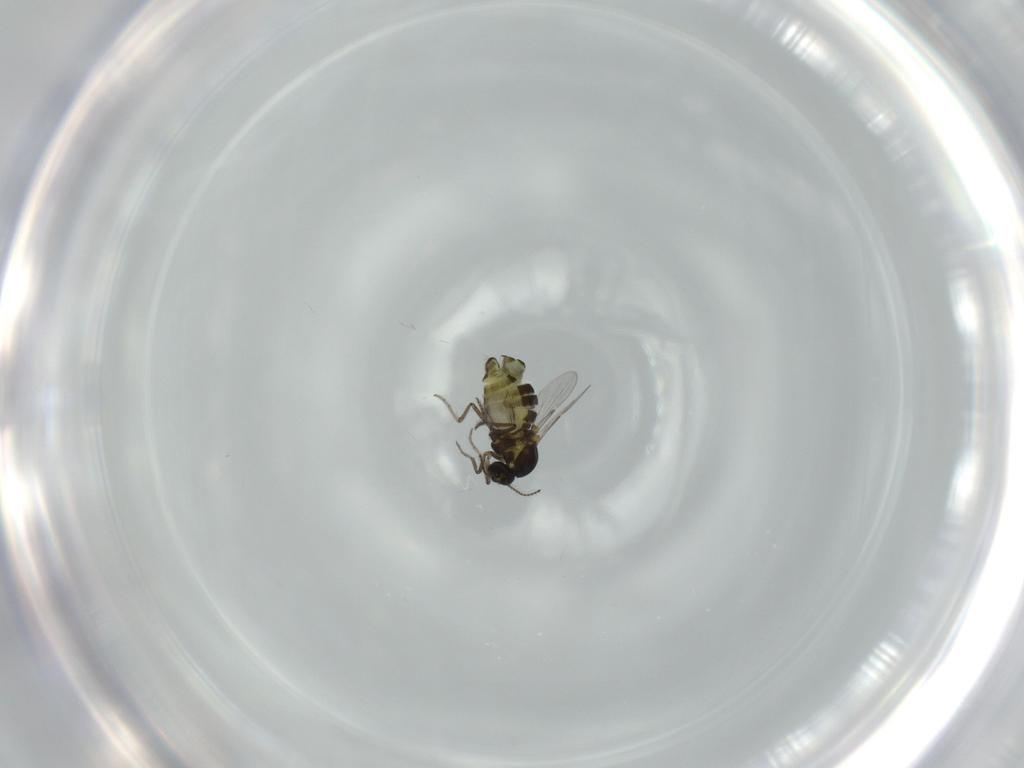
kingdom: Animalia
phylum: Arthropoda
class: Insecta
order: Diptera
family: Ceratopogonidae
